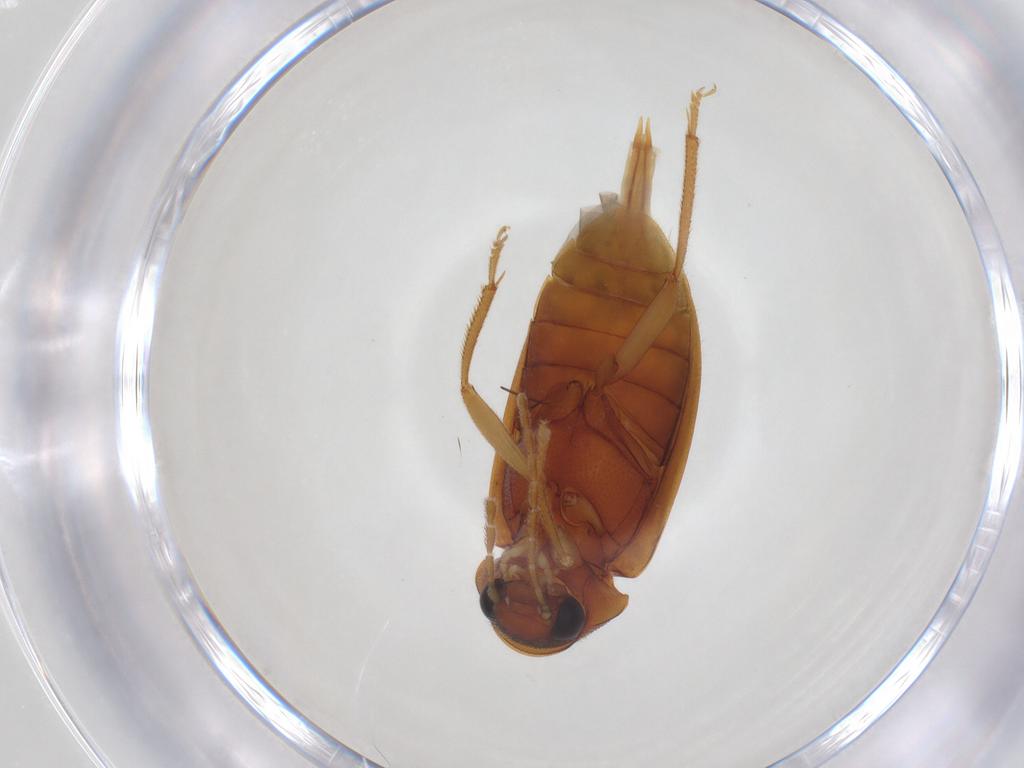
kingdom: Animalia
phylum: Arthropoda
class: Insecta
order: Coleoptera
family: Ptilodactylidae
